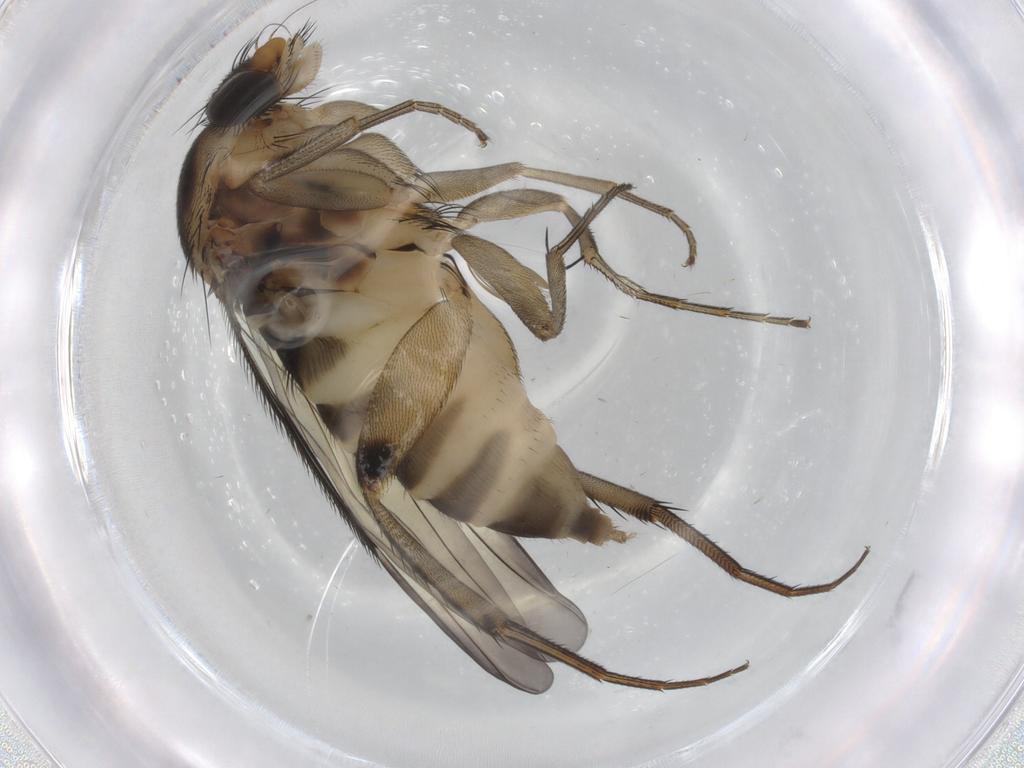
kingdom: Animalia
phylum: Arthropoda
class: Insecta
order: Diptera
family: Phoridae
